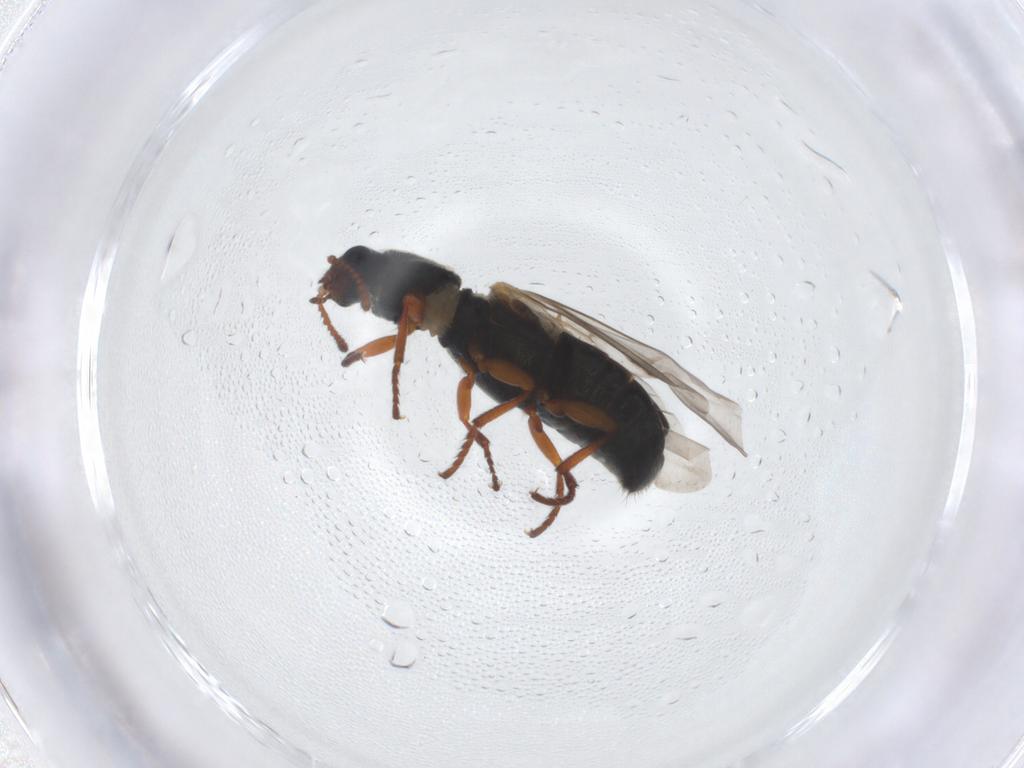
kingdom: Animalia
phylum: Arthropoda
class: Insecta
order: Coleoptera
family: Melyridae
